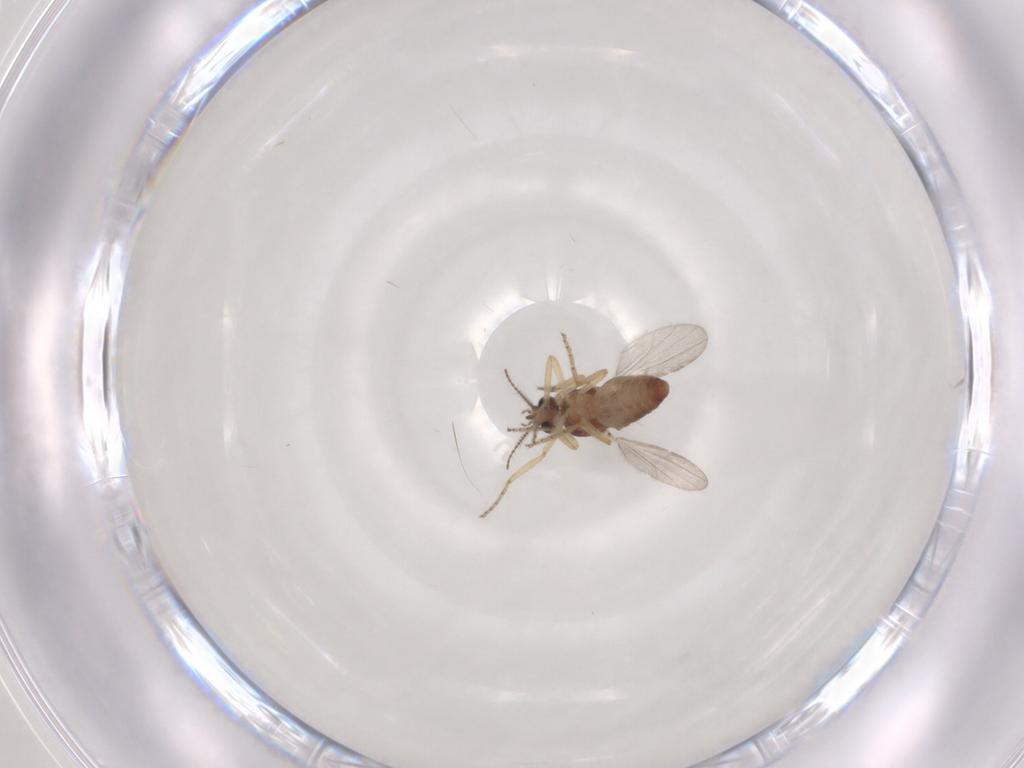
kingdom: Animalia
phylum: Arthropoda
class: Insecta
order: Diptera
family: Ceratopogonidae
